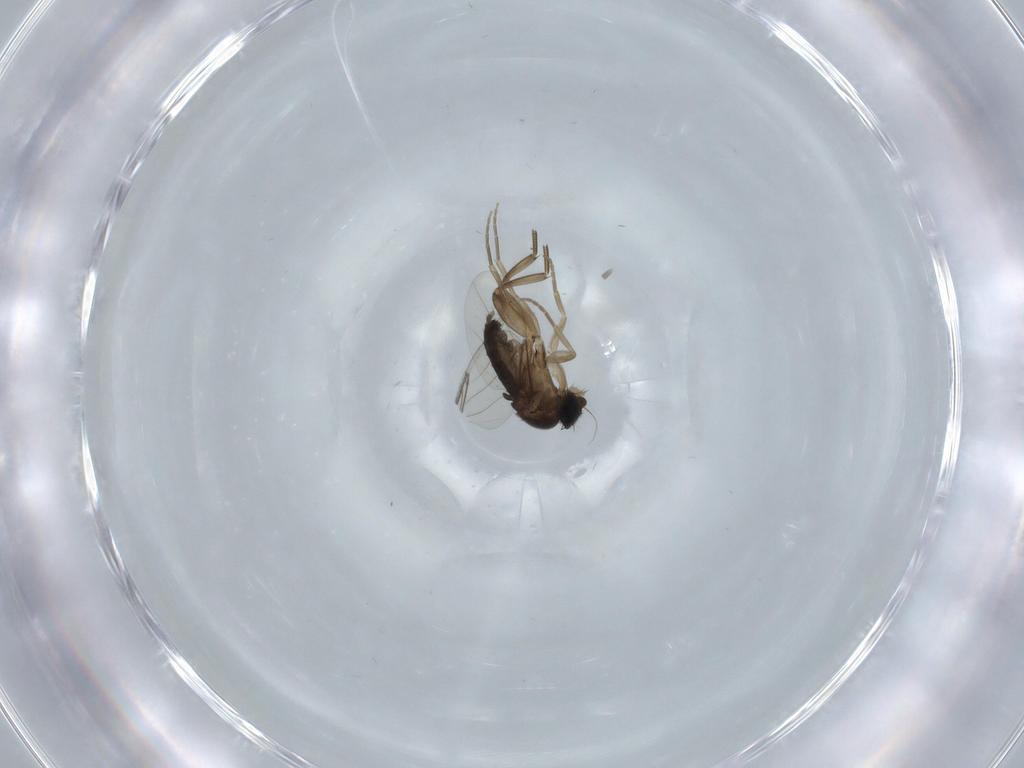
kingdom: Animalia
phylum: Arthropoda
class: Insecta
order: Diptera
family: Phoridae
